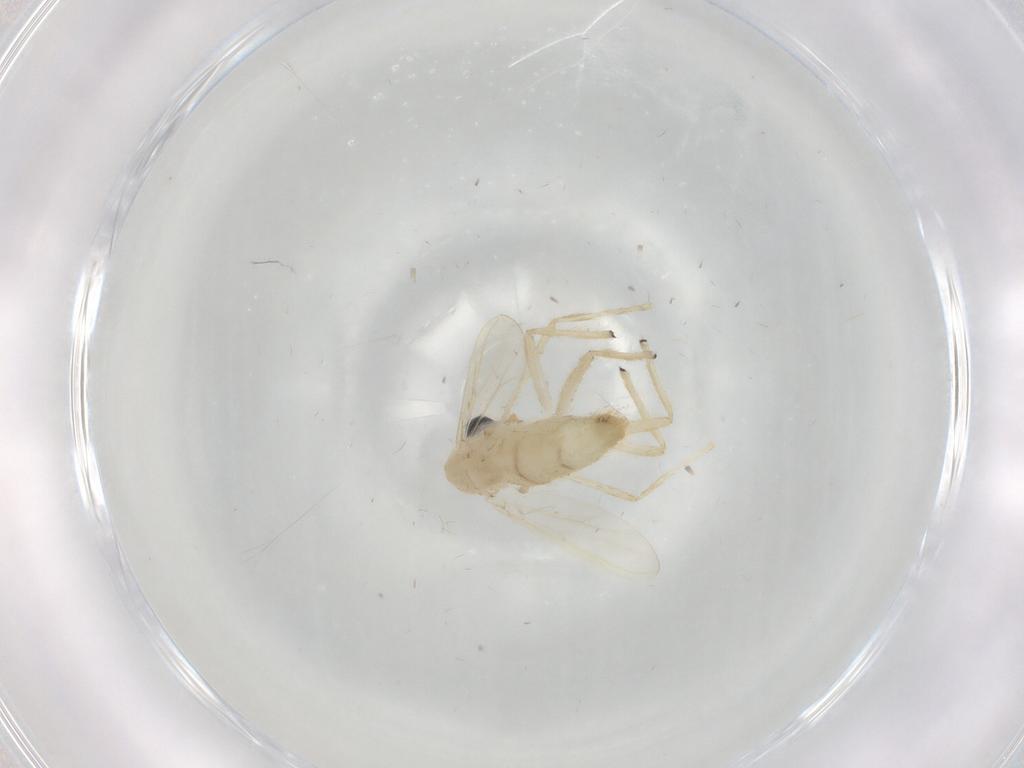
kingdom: Animalia
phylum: Arthropoda
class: Insecta
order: Diptera
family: Chironomidae
